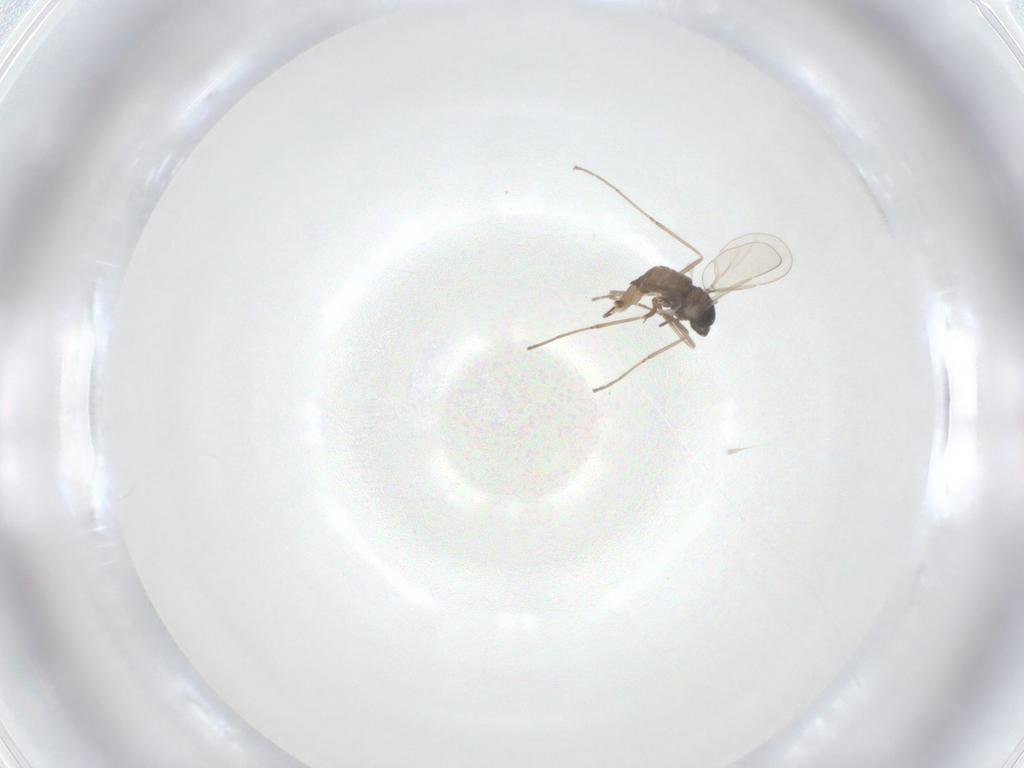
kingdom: Animalia
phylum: Arthropoda
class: Insecta
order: Diptera
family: Cecidomyiidae
